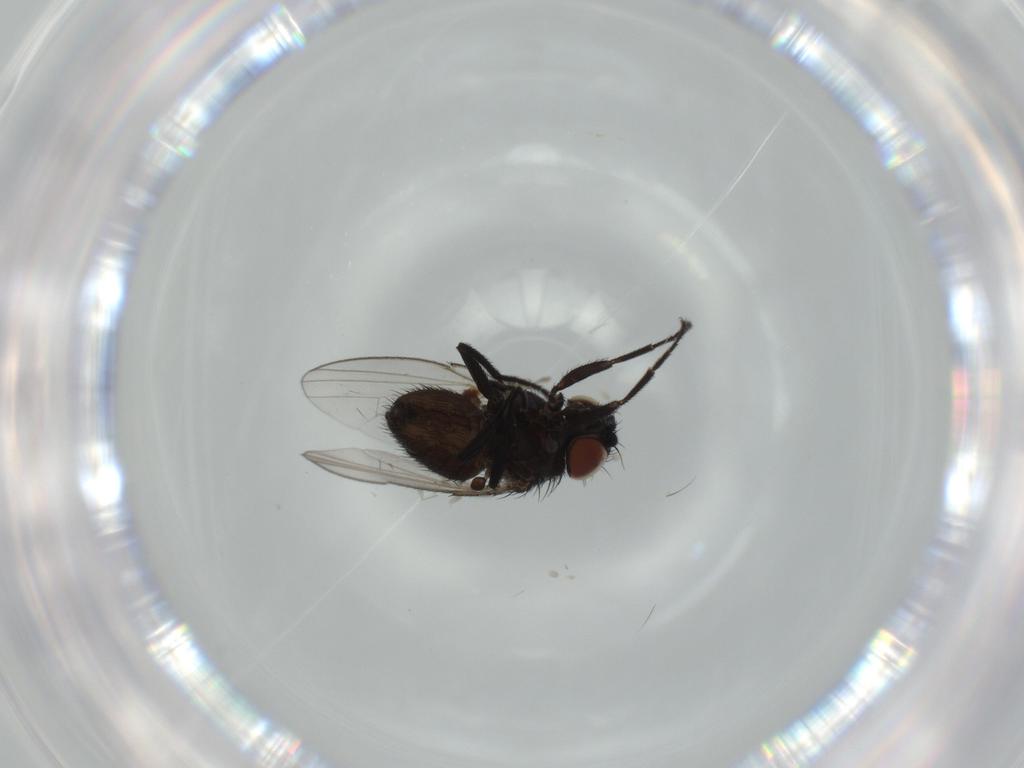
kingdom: Animalia
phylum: Arthropoda
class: Insecta
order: Diptera
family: Milichiidae
